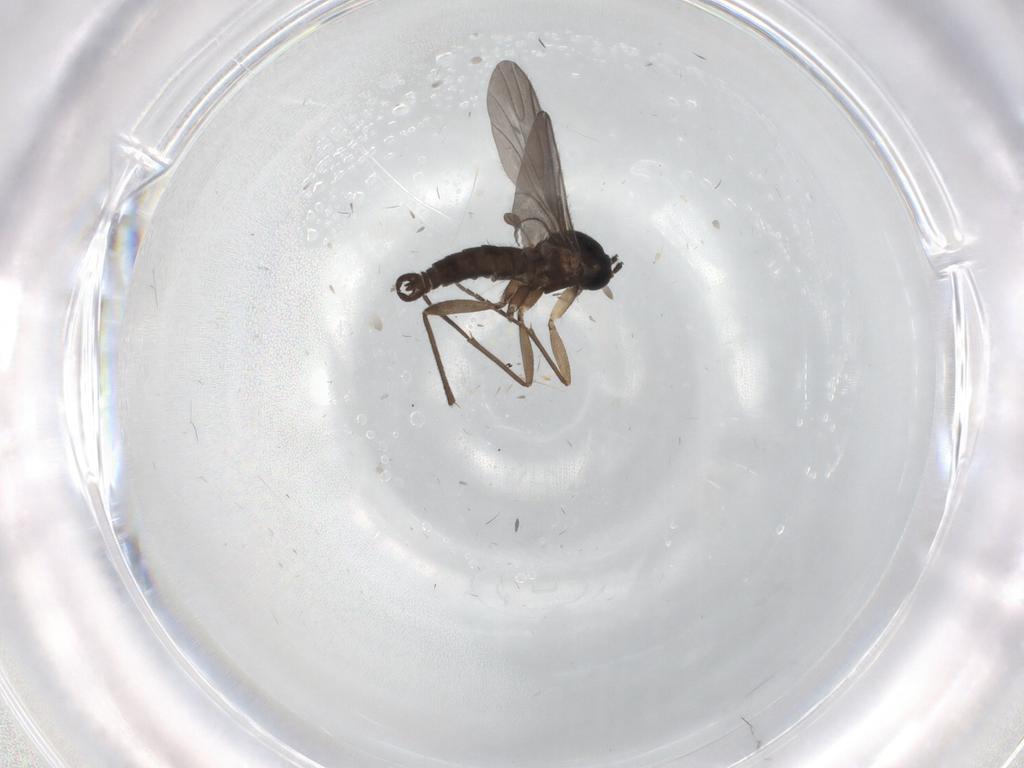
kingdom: Animalia
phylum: Arthropoda
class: Insecta
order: Diptera
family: Sciaridae
